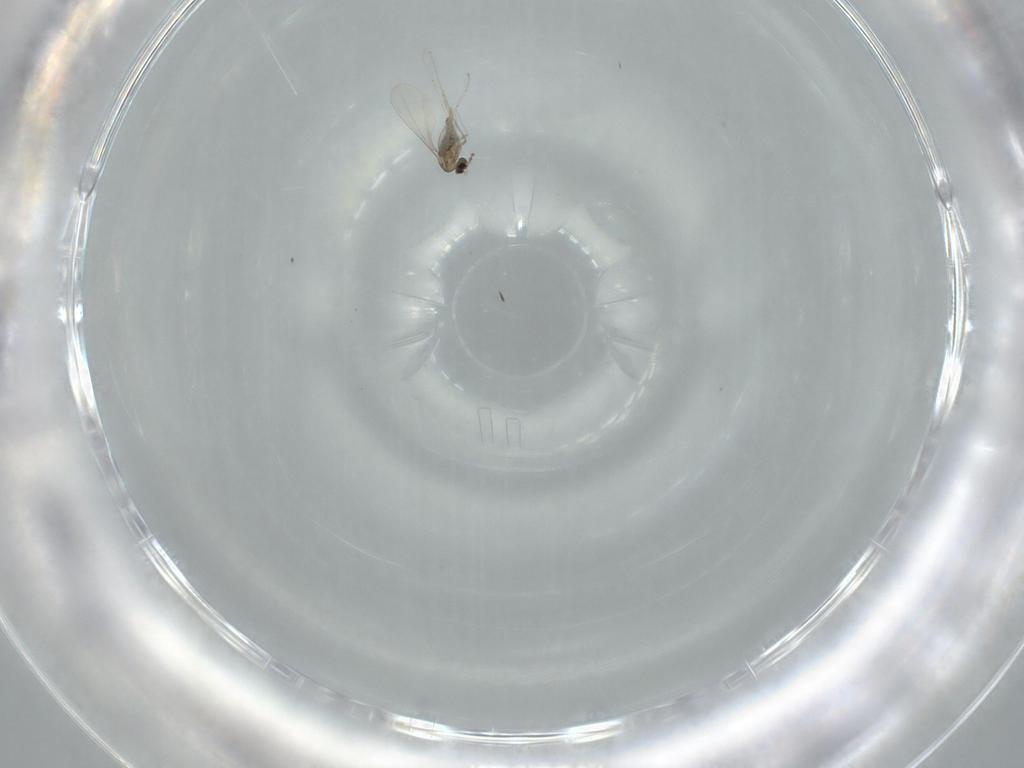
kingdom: Animalia
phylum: Arthropoda
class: Insecta
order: Diptera
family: Cecidomyiidae
